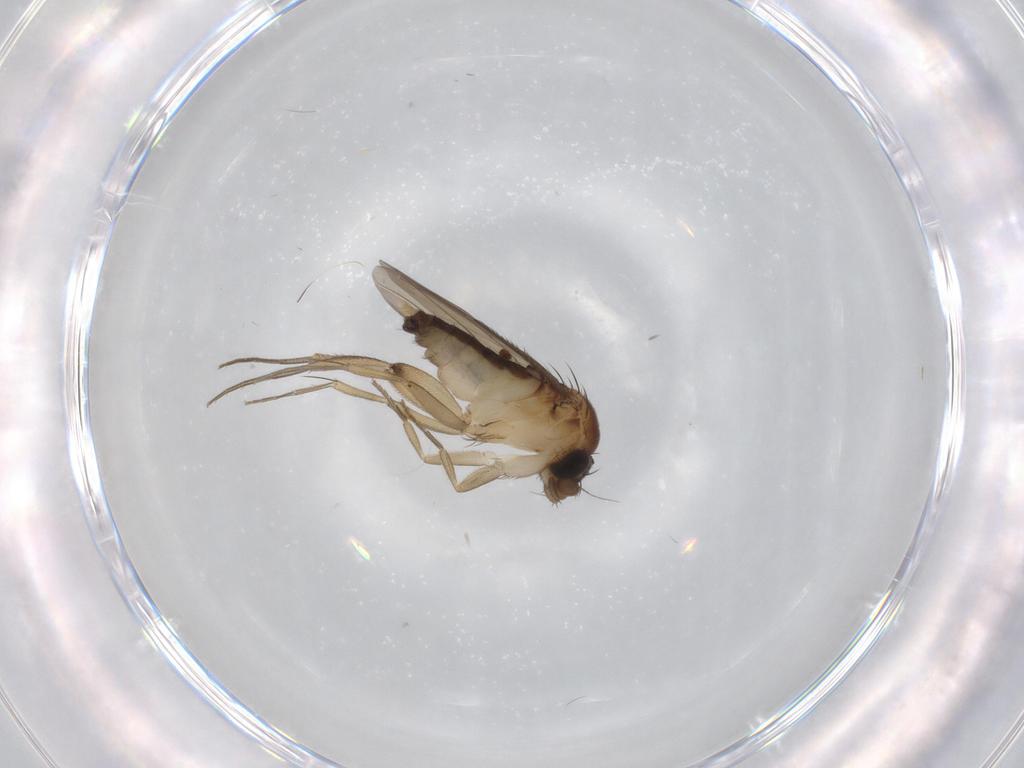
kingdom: Animalia
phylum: Arthropoda
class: Insecta
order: Diptera
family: Phoridae
